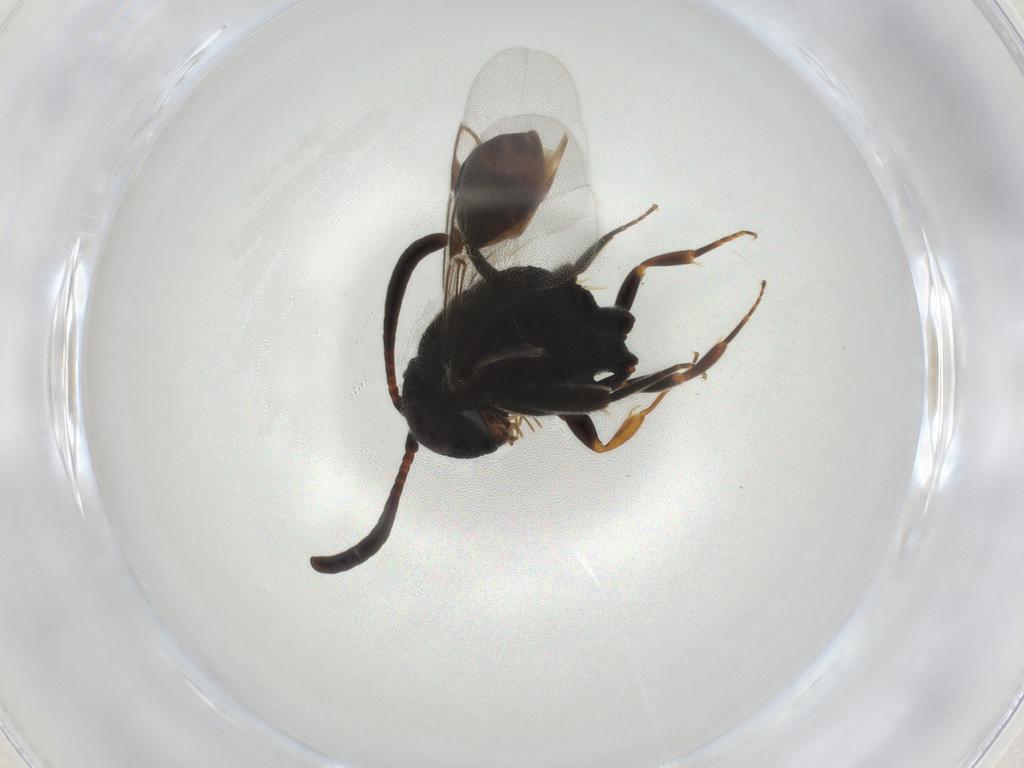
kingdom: Animalia
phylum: Arthropoda
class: Insecta
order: Hymenoptera
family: Evaniidae
